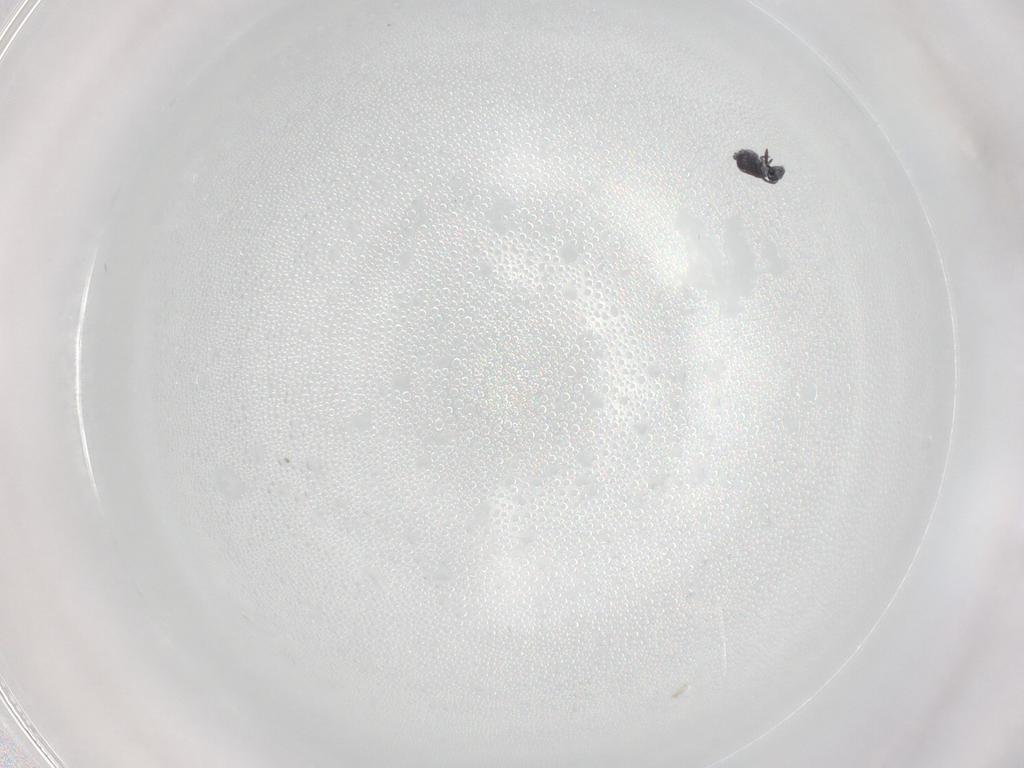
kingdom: Animalia
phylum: Arthropoda
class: Collembola
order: Symphypleona
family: Katiannidae
